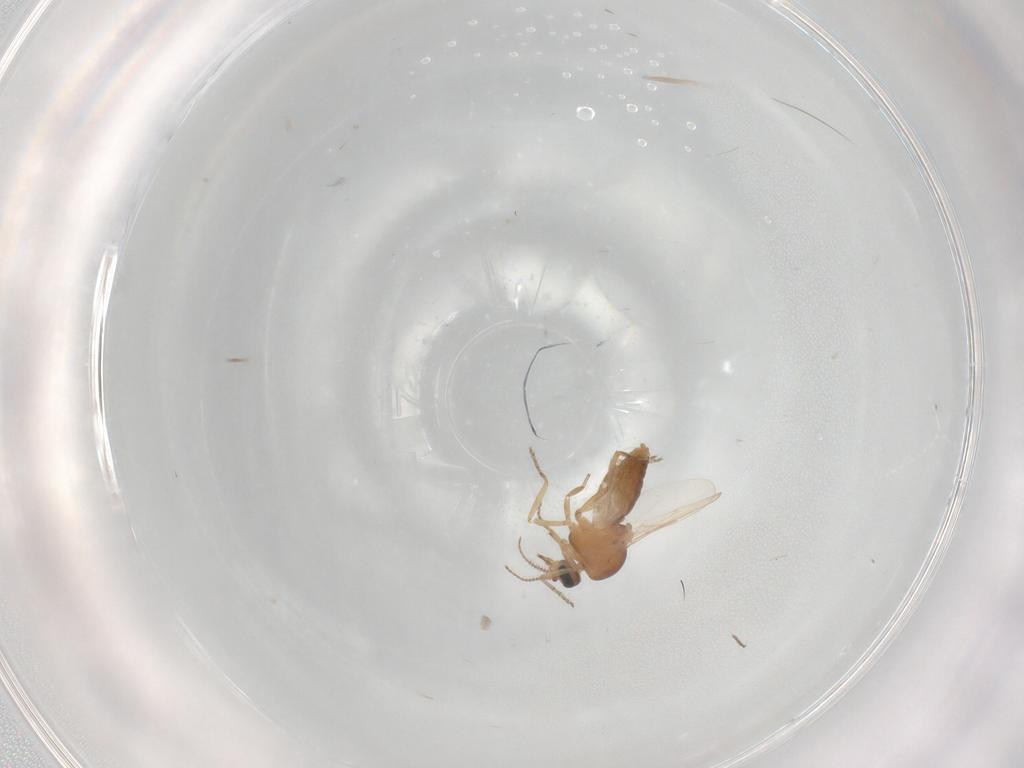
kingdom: Animalia
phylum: Arthropoda
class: Insecta
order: Diptera
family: Ceratopogonidae
